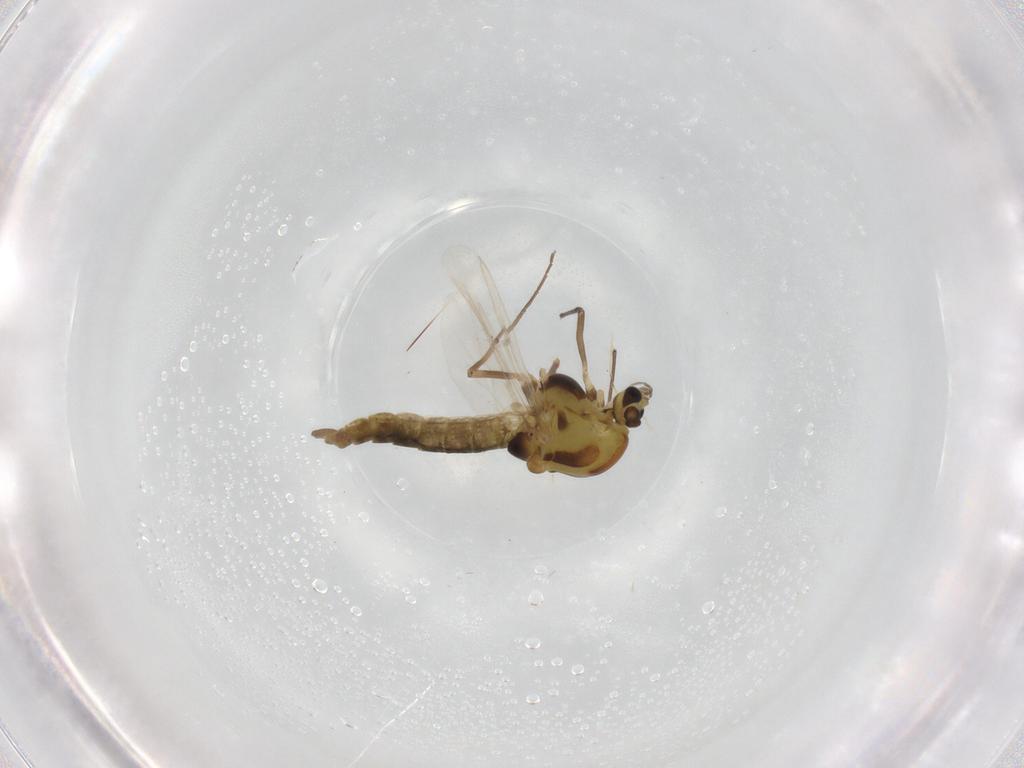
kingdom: Animalia
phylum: Arthropoda
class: Insecta
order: Diptera
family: Chironomidae
